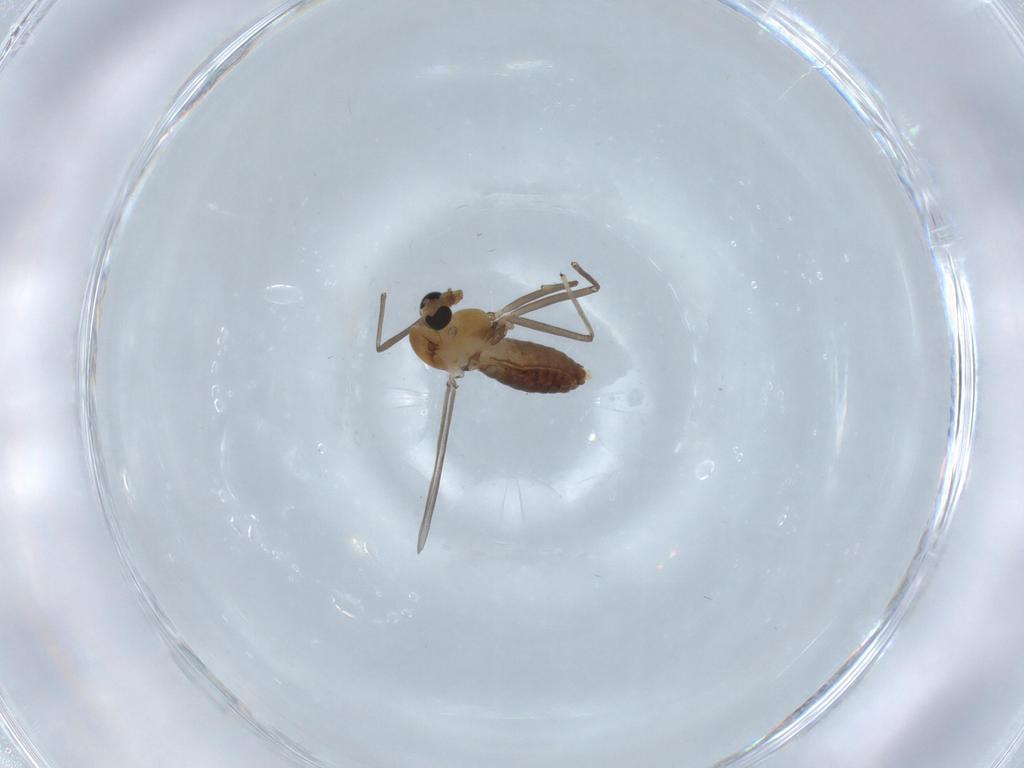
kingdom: Animalia
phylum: Arthropoda
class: Insecta
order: Diptera
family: Chironomidae
